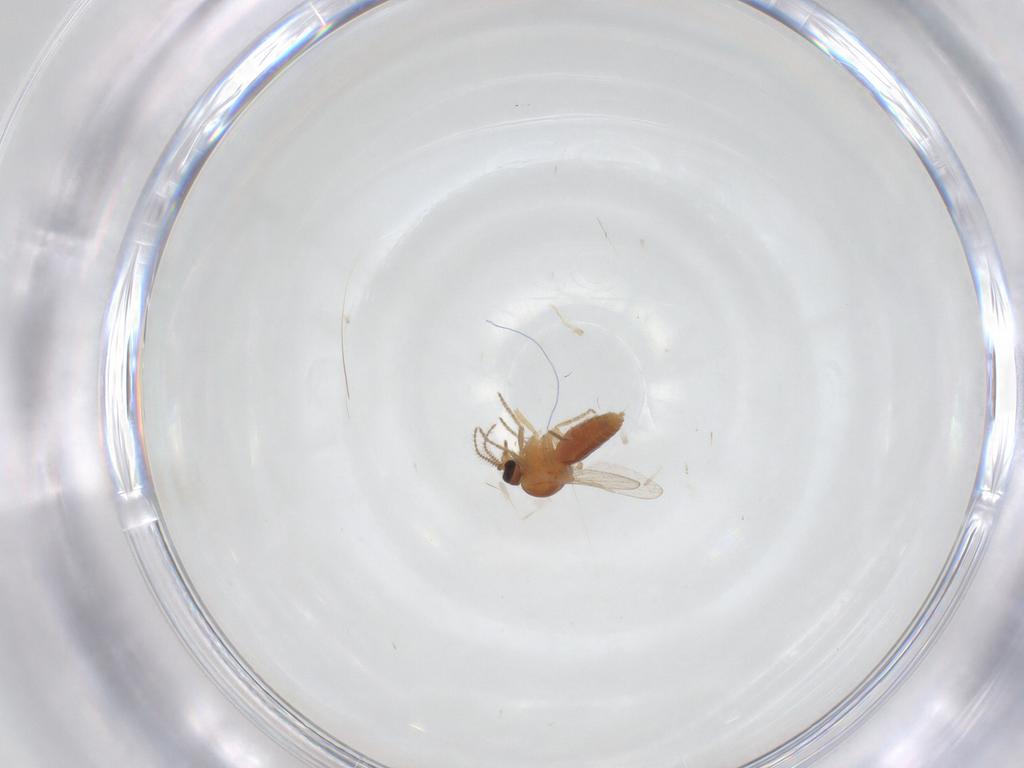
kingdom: Animalia
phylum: Arthropoda
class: Insecta
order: Diptera
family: Ceratopogonidae
